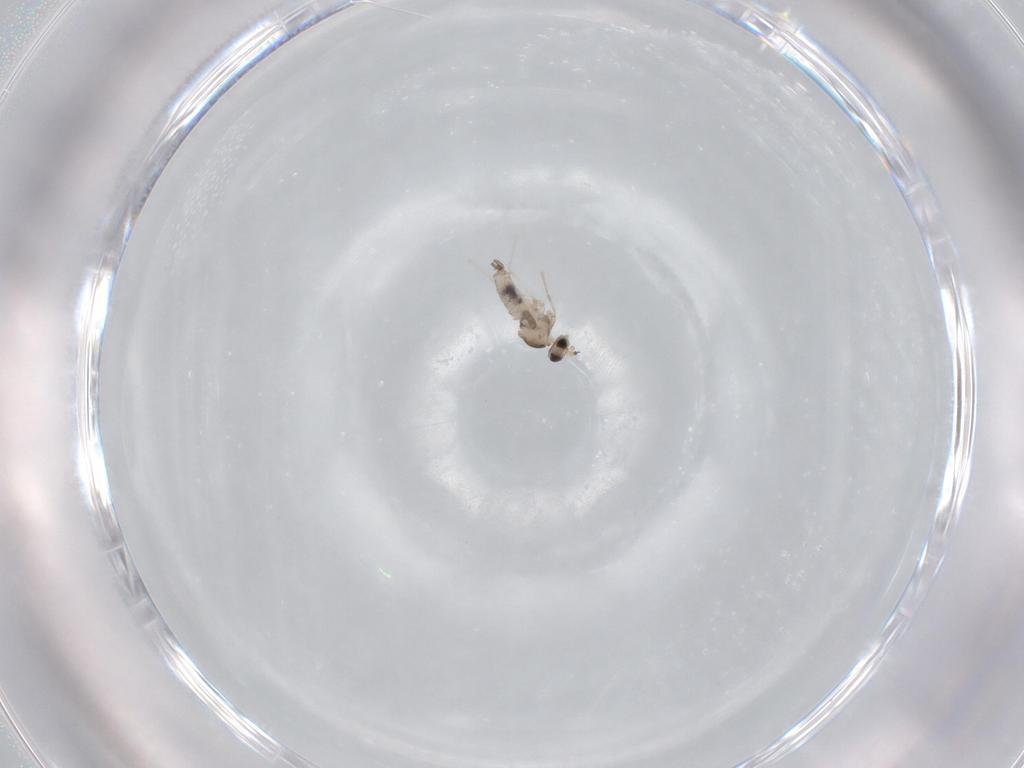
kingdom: Animalia
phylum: Arthropoda
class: Insecta
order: Diptera
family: Cecidomyiidae
